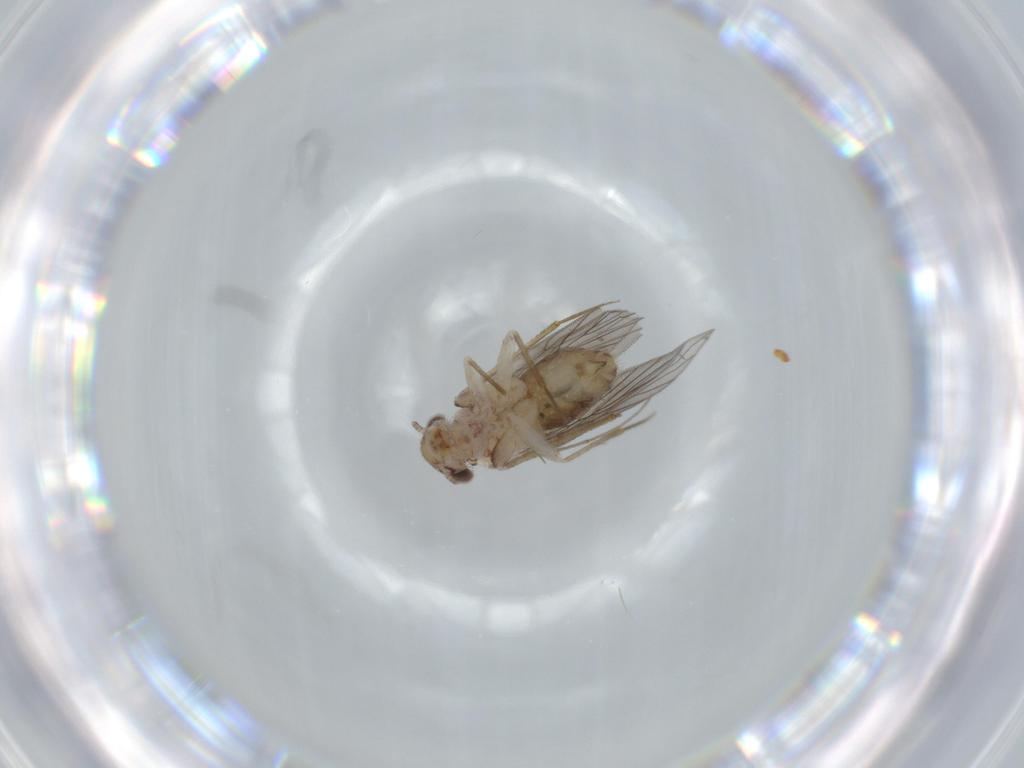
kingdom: Animalia
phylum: Arthropoda
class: Insecta
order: Psocodea
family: Lepidopsocidae
